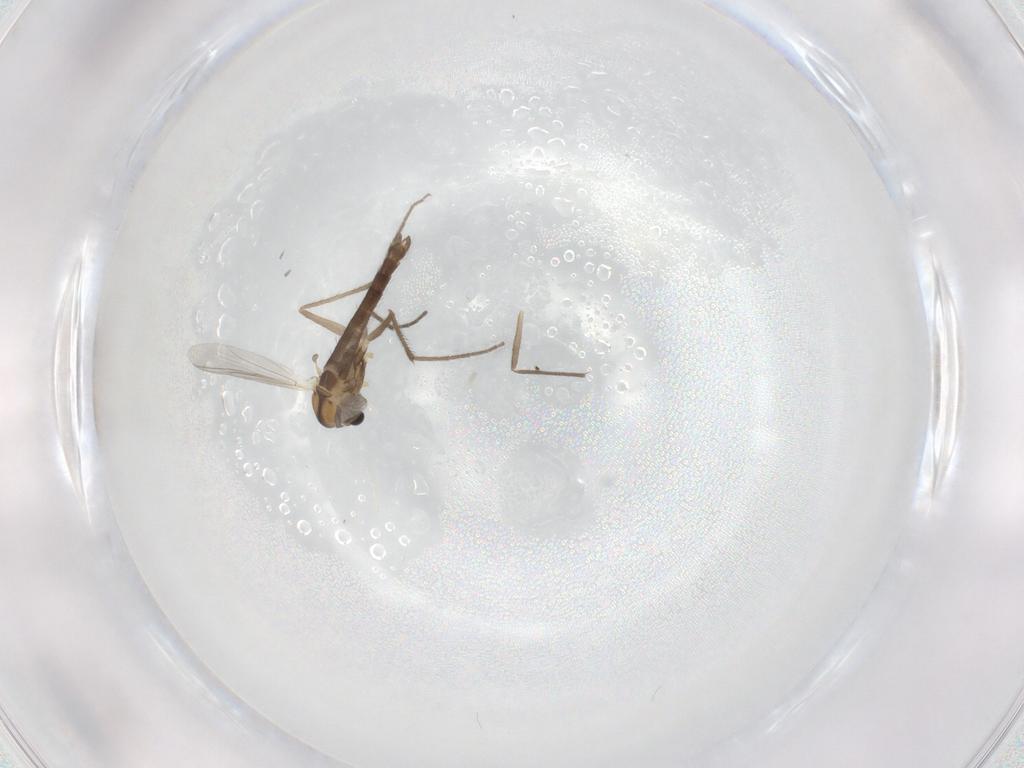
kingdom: Animalia
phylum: Arthropoda
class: Insecta
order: Diptera
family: Chironomidae
